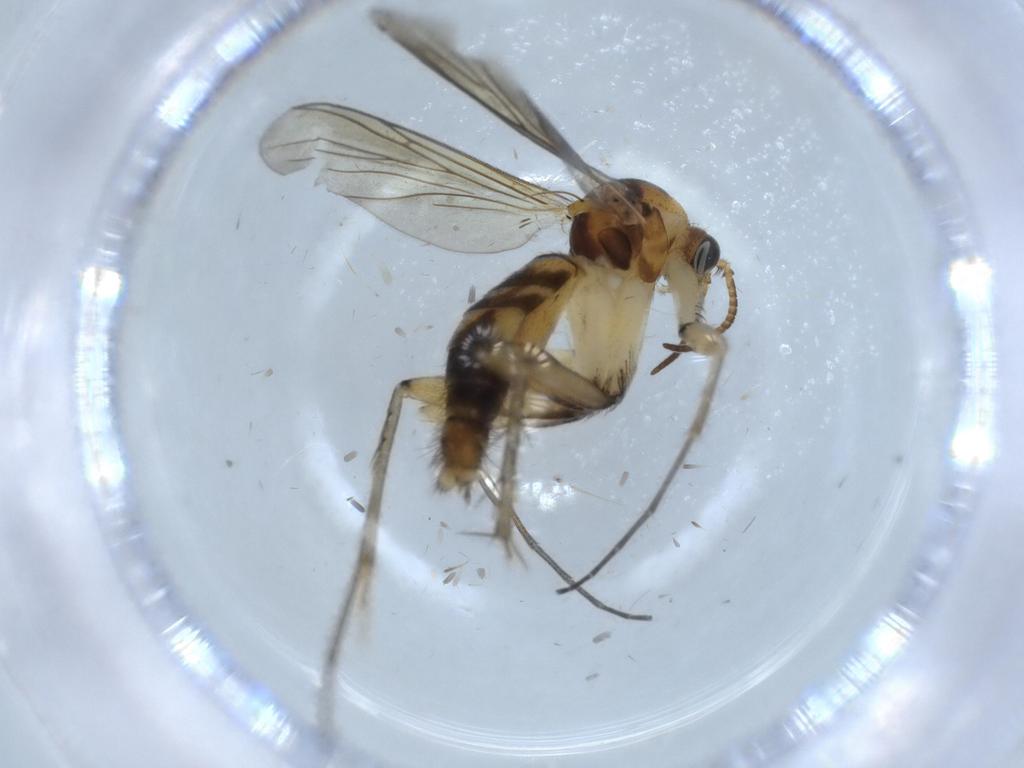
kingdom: Animalia
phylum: Arthropoda
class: Insecta
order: Diptera
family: Sciaridae
